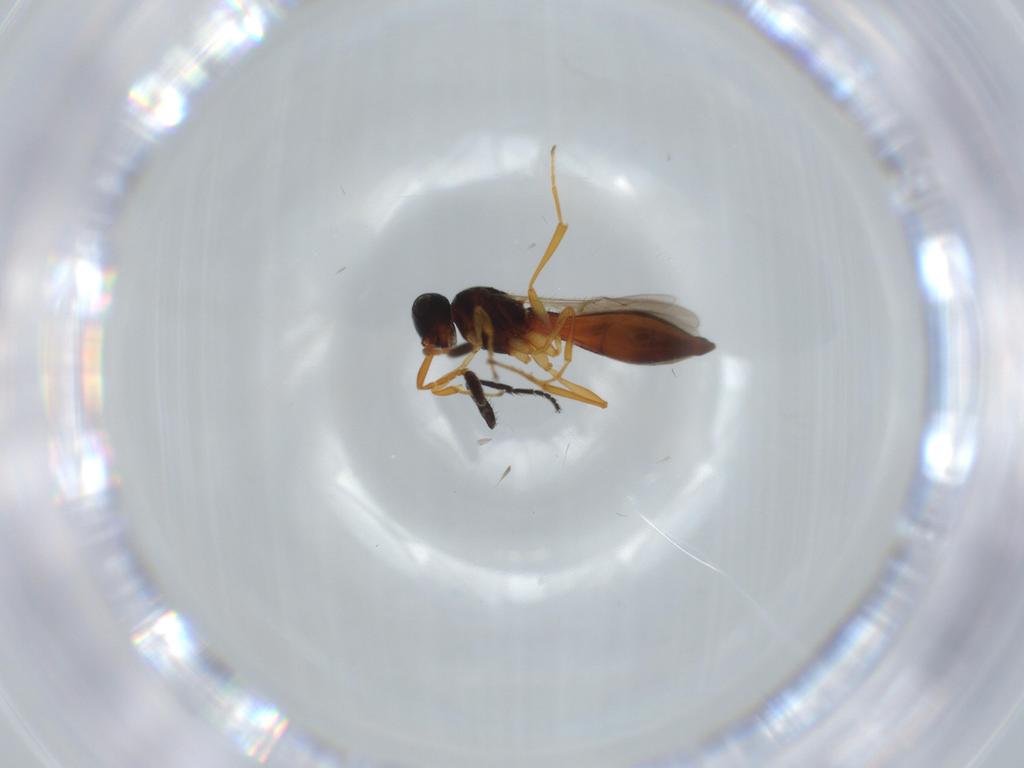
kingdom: Animalia
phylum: Arthropoda
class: Insecta
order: Hymenoptera
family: Scelionidae
